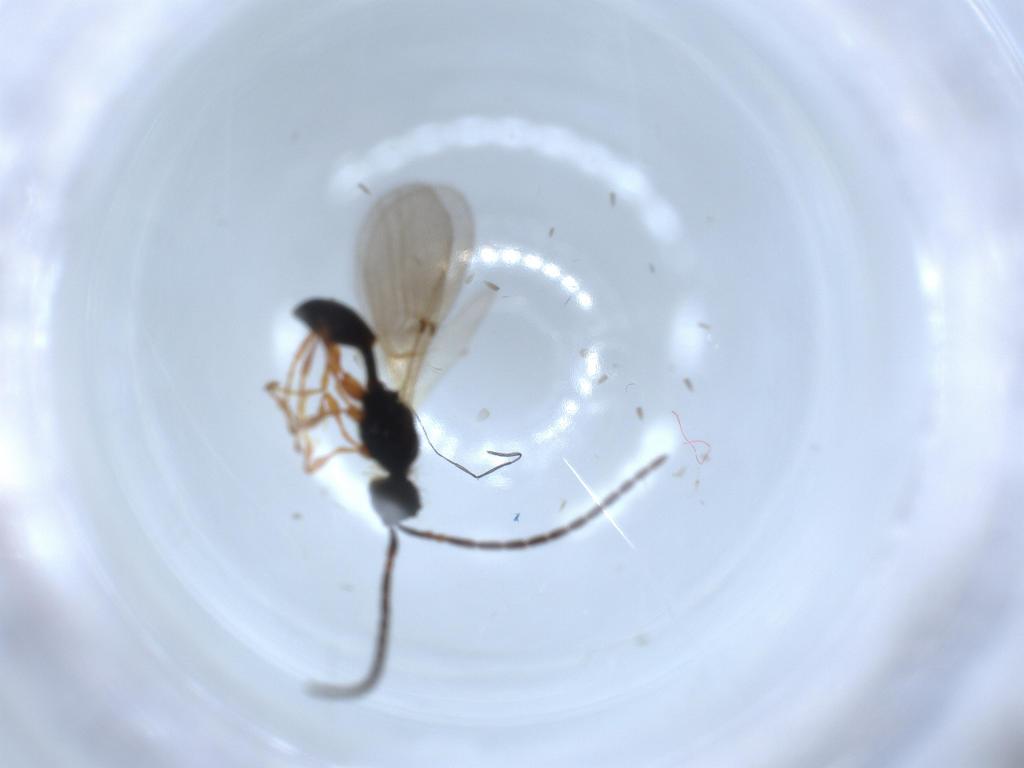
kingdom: Animalia
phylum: Arthropoda
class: Insecta
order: Hymenoptera
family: Diapriidae
